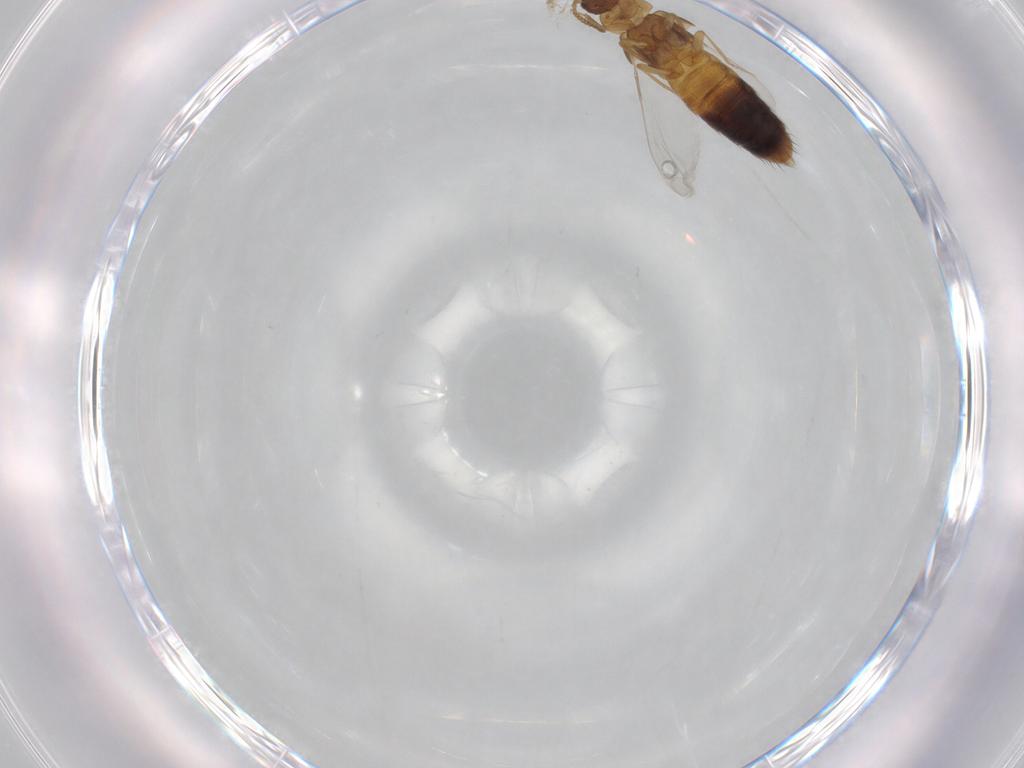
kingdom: Animalia
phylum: Arthropoda
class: Insecta
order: Coleoptera
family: Staphylinidae
